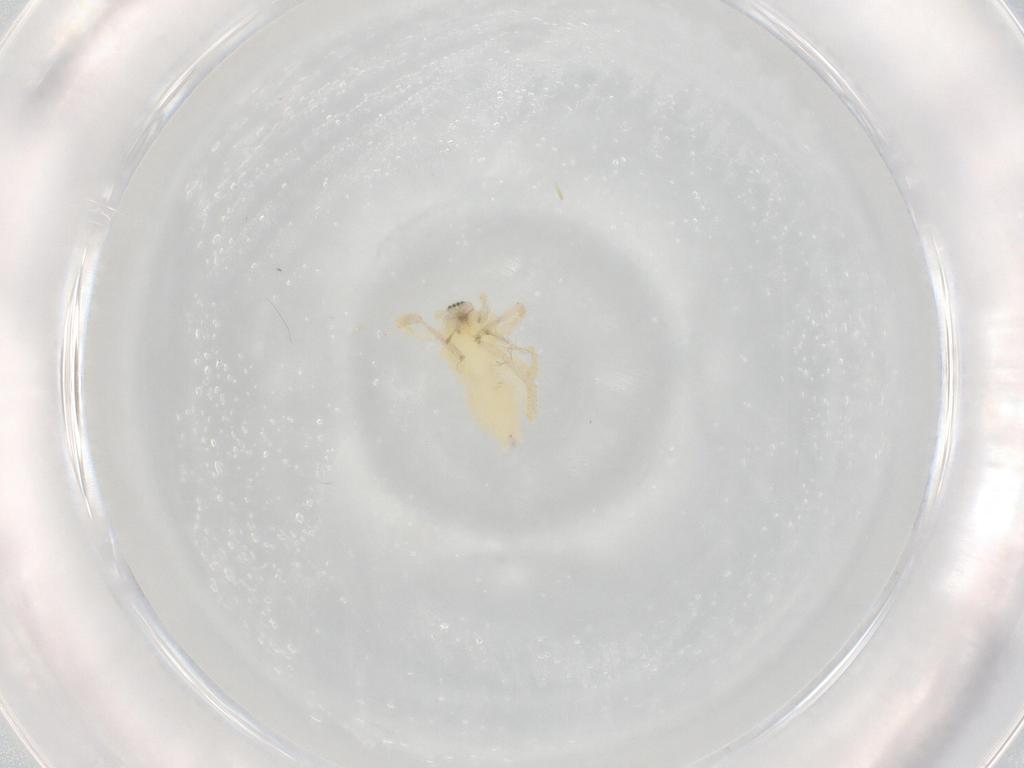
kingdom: Animalia
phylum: Arthropoda
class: Arachnida
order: Araneae
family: Anyphaenidae
